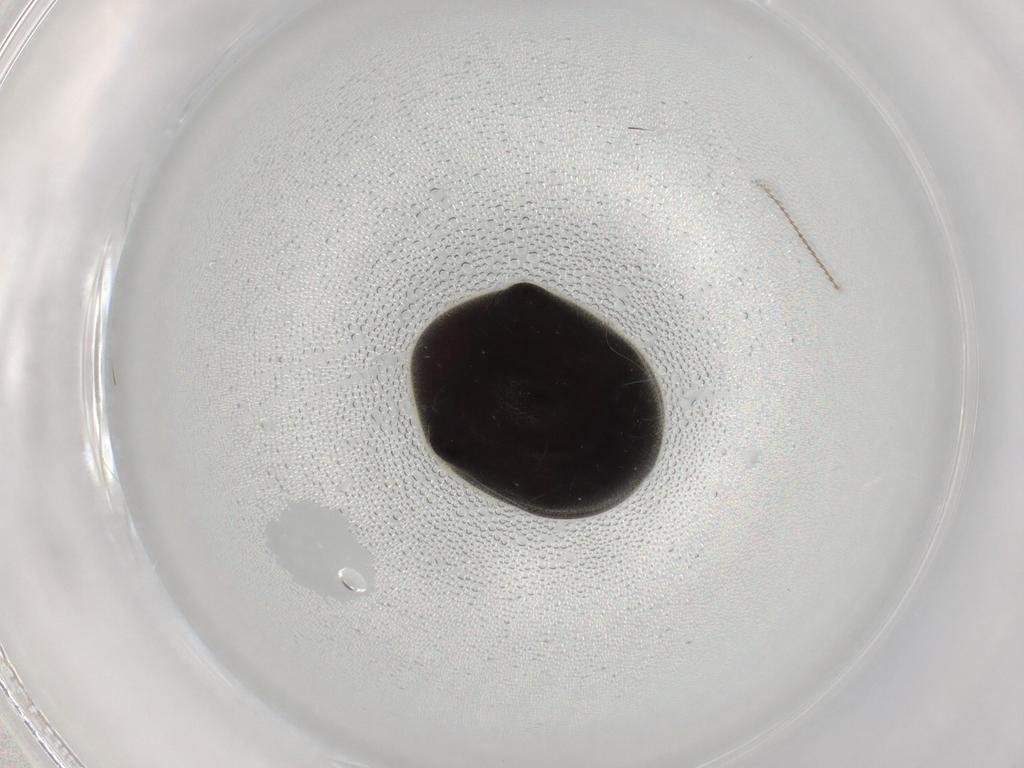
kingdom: Animalia
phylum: Arthropoda
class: Insecta
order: Coleoptera
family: Ptinidae
